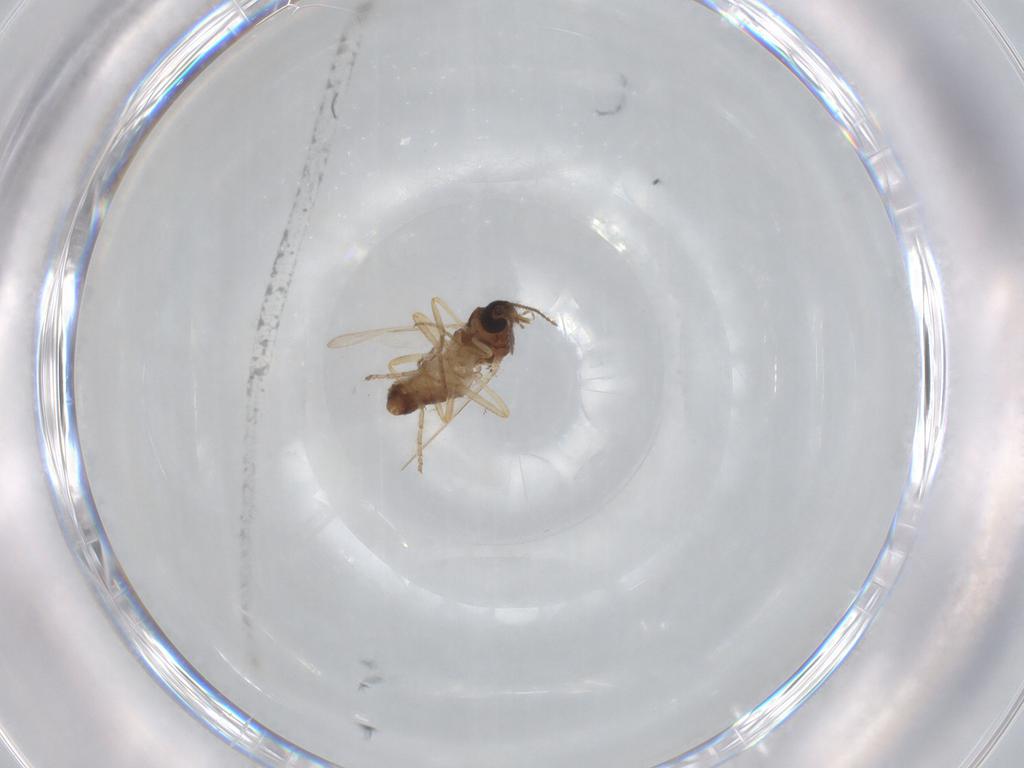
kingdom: Animalia
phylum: Arthropoda
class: Insecta
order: Diptera
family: Ceratopogonidae
